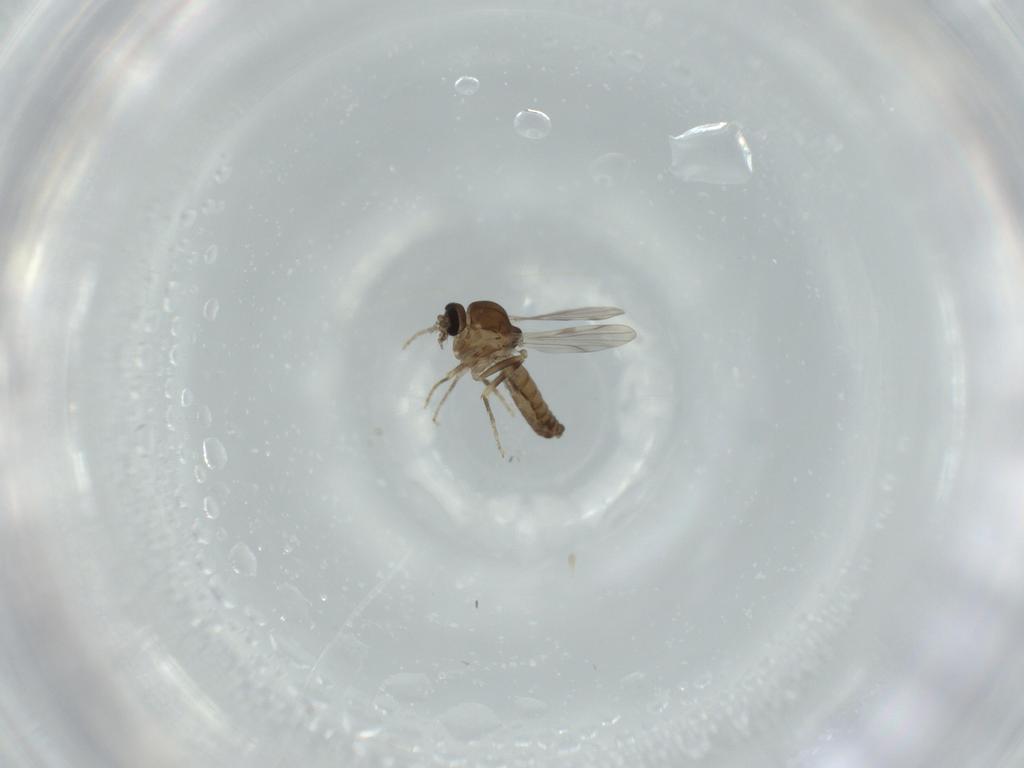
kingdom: Animalia
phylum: Arthropoda
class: Insecta
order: Diptera
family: Ceratopogonidae
